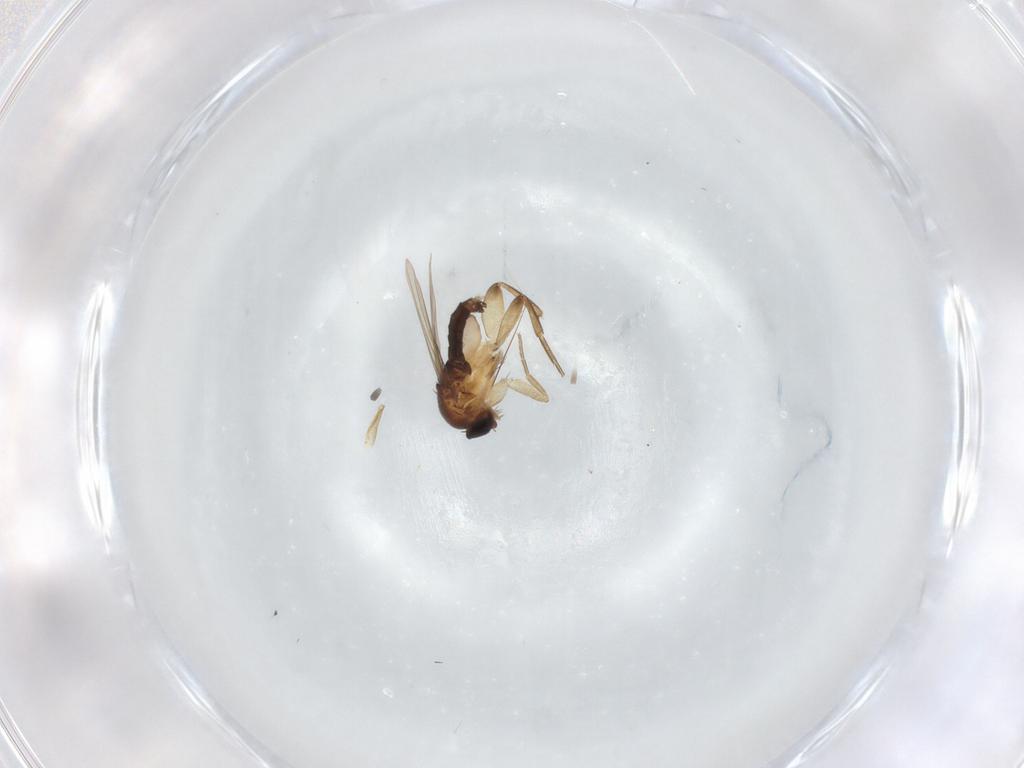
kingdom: Animalia
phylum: Arthropoda
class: Insecta
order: Diptera
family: Phoridae
